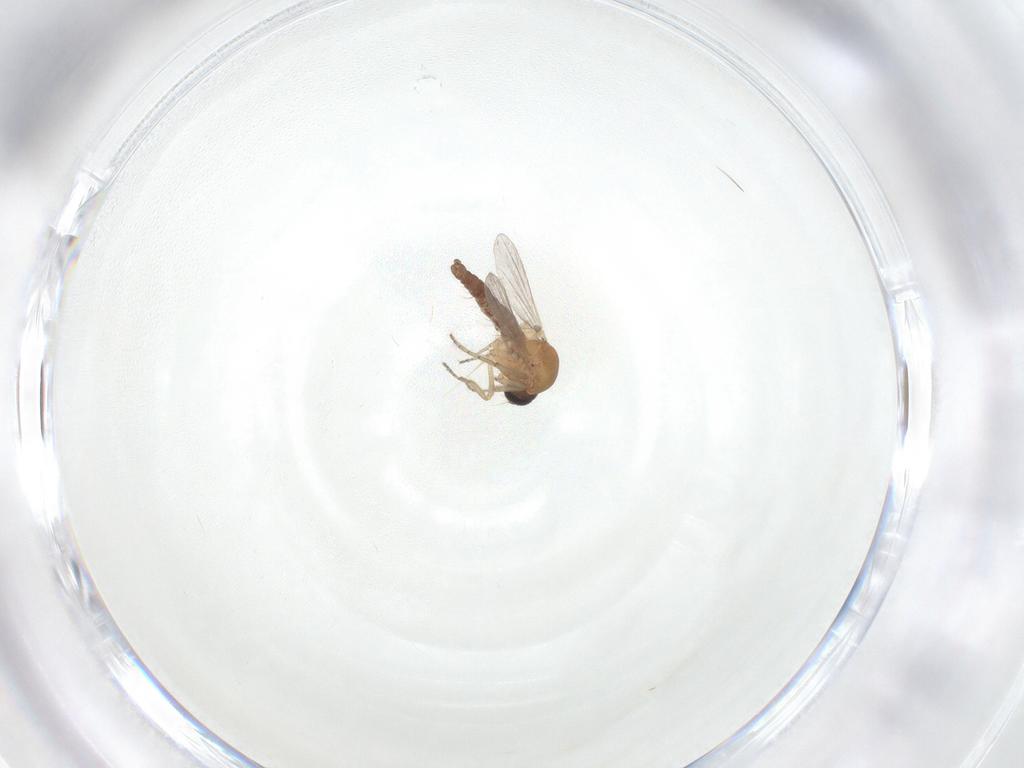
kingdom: Animalia
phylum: Arthropoda
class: Insecta
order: Diptera
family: Ceratopogonidae
